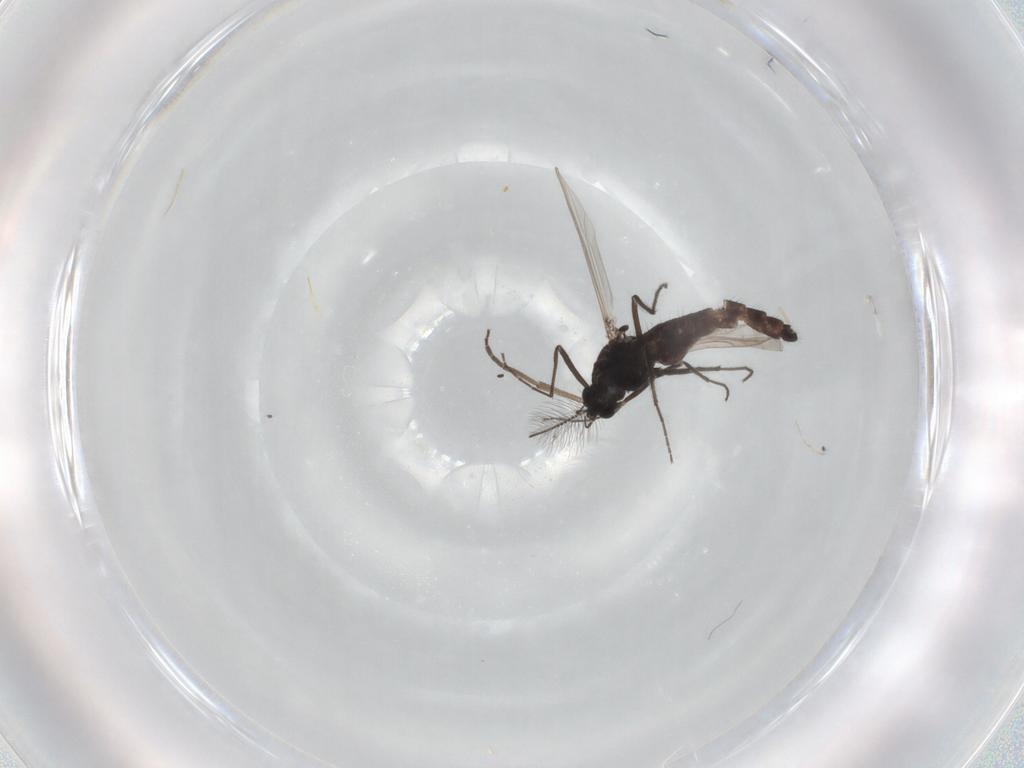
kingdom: Animalia
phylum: Arthropoda
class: Insecta
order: Diptera
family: Chironomidae
